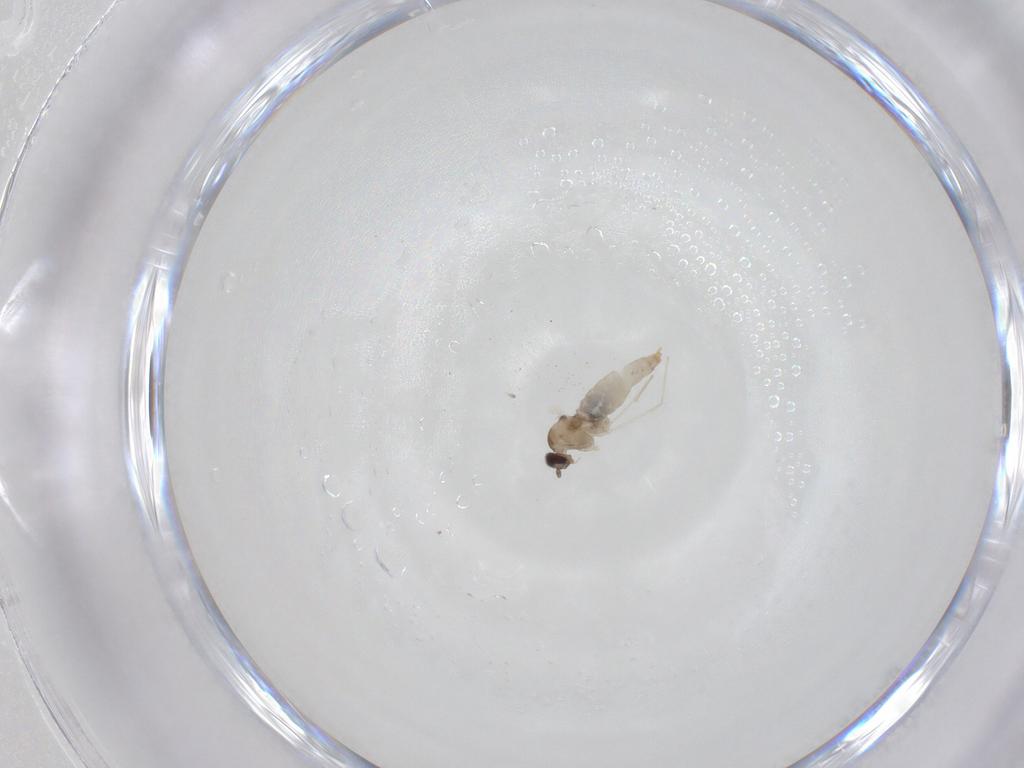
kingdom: Animalia
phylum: Arthropoda
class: Insecta
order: Diptera
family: Cecidomyiidae
